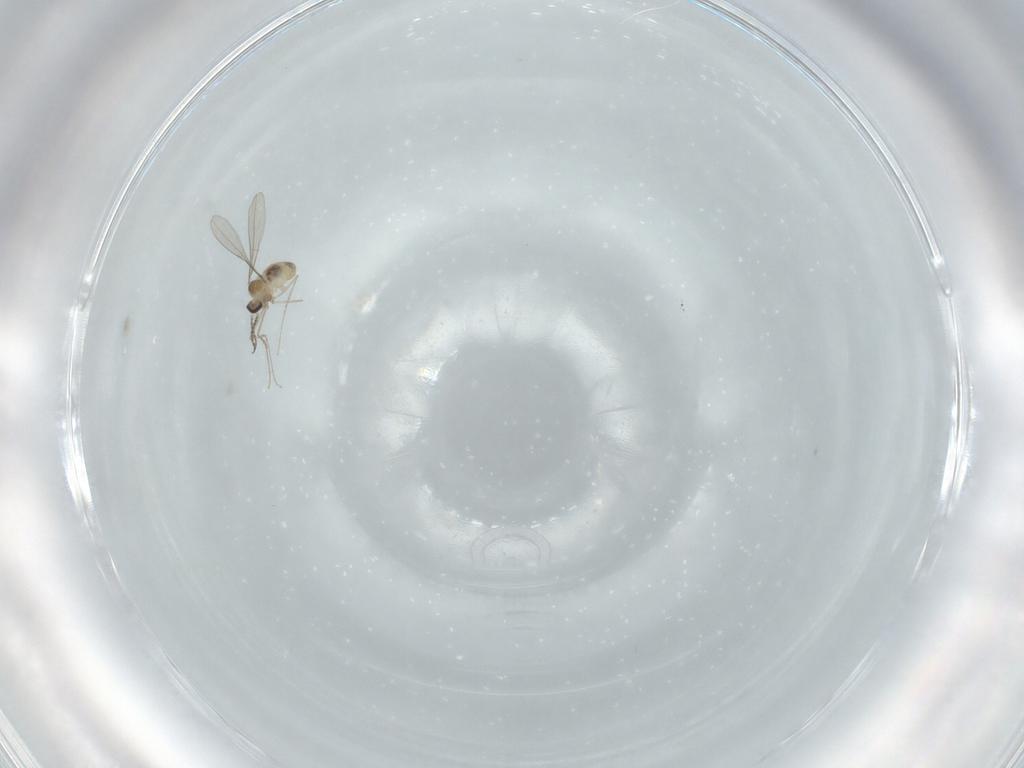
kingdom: Animalia
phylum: Arthropoda
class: Insecta
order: Diptera
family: Cecidomyiidae
